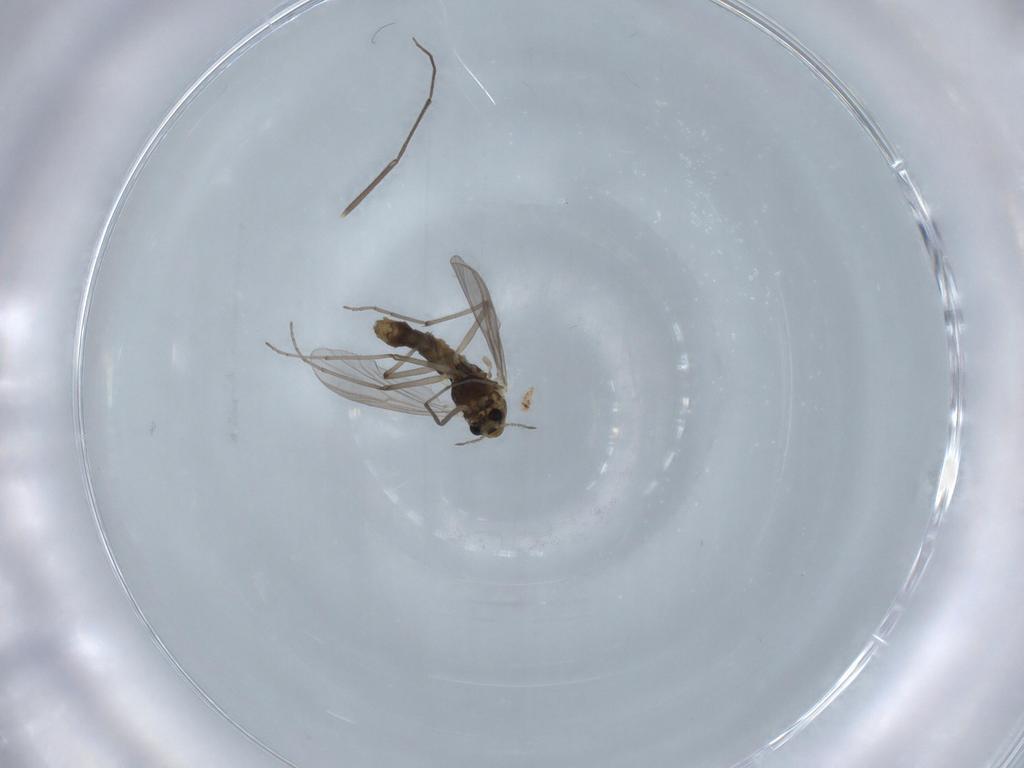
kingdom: Animalia
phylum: Arthropoda
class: Insecta
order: Diptera
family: Chironomidae
